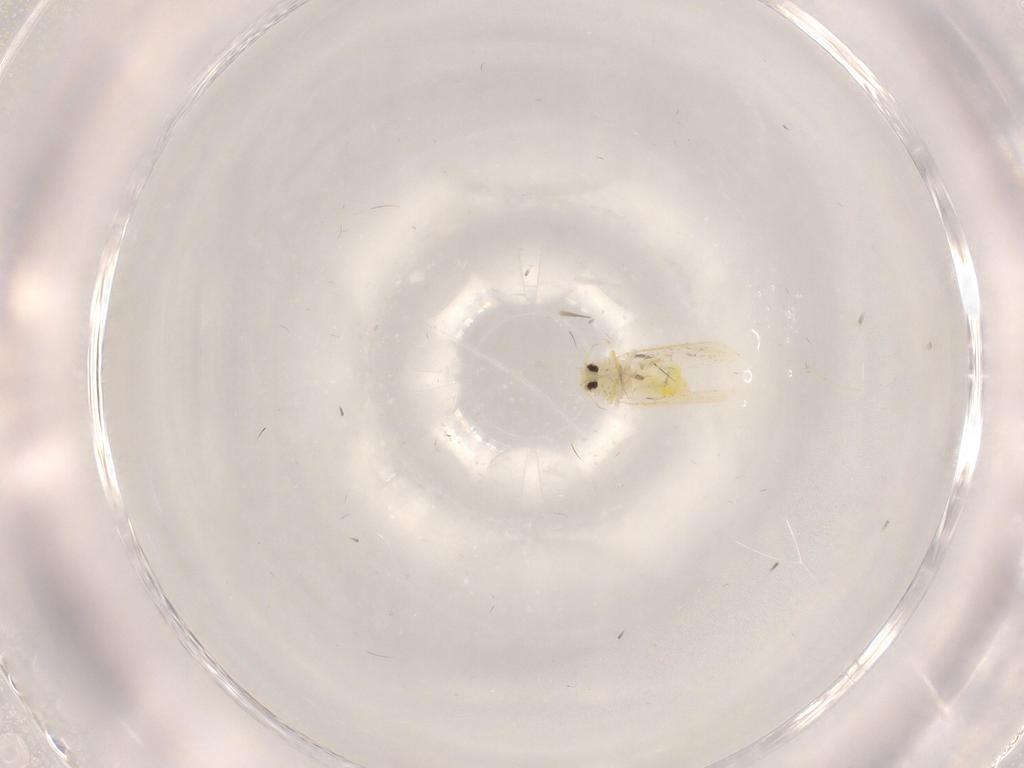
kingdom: Animalia
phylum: Arthropoda
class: Insecta
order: Hemiptera
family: Aleyrodidae
